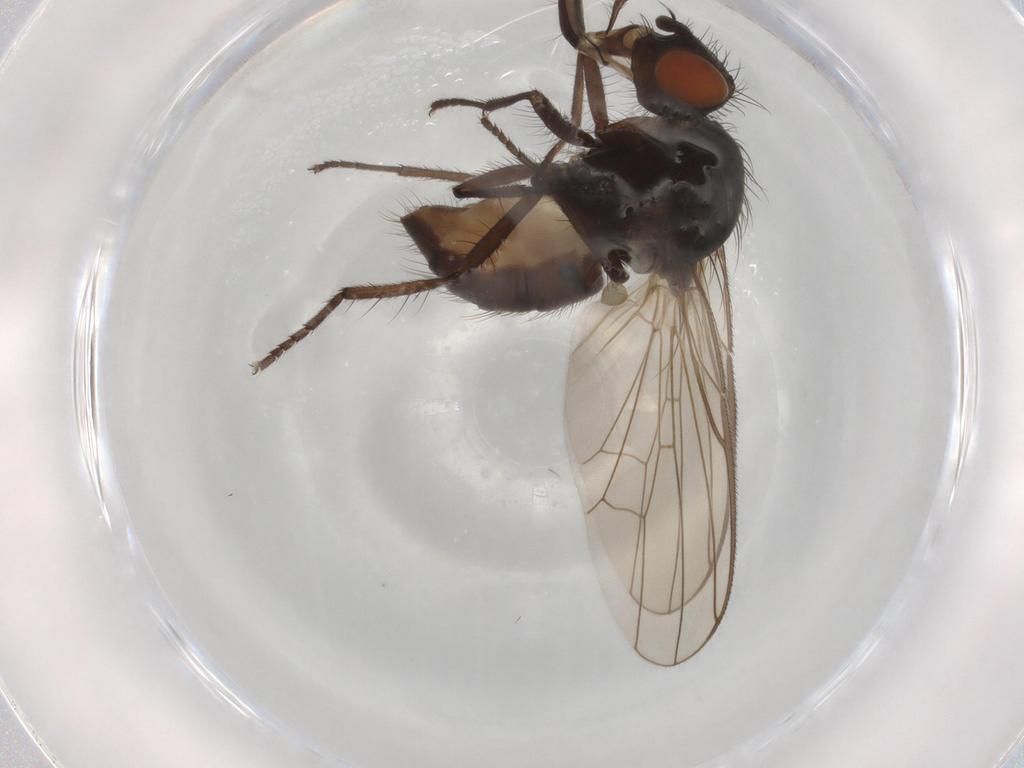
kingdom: Animalia
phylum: Arthropoda
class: Insecta
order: Diptera
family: Anthomyiidae
